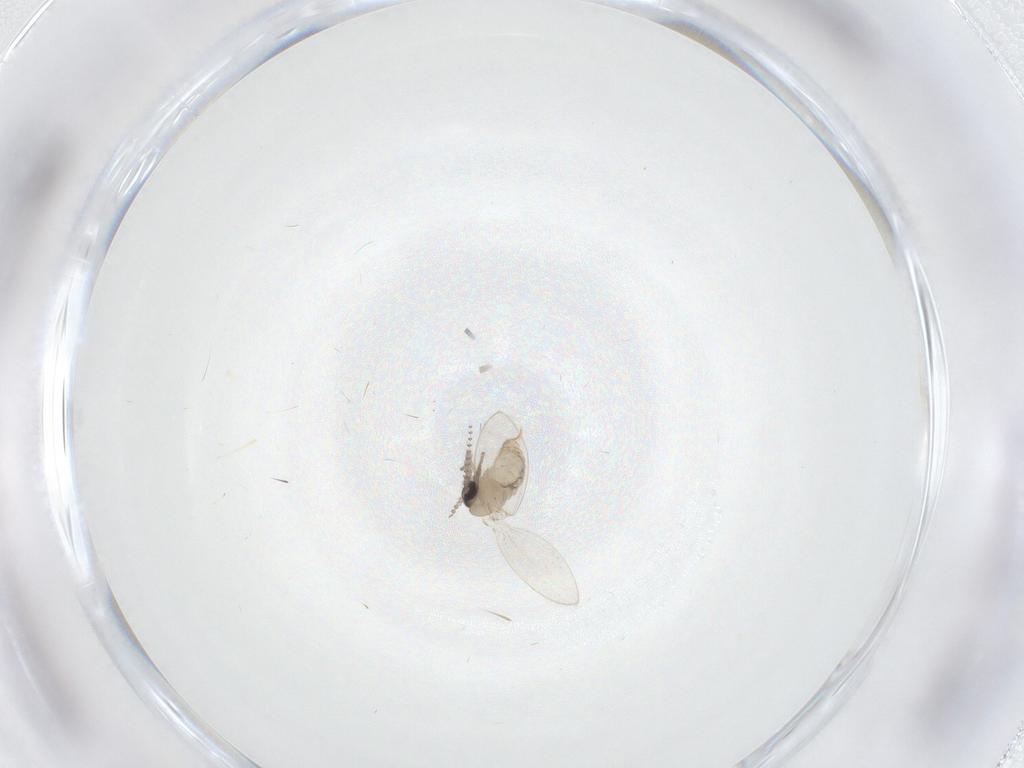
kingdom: Animalia
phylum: Arthropoda
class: Insecta
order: Diptera
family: Psychodidae
